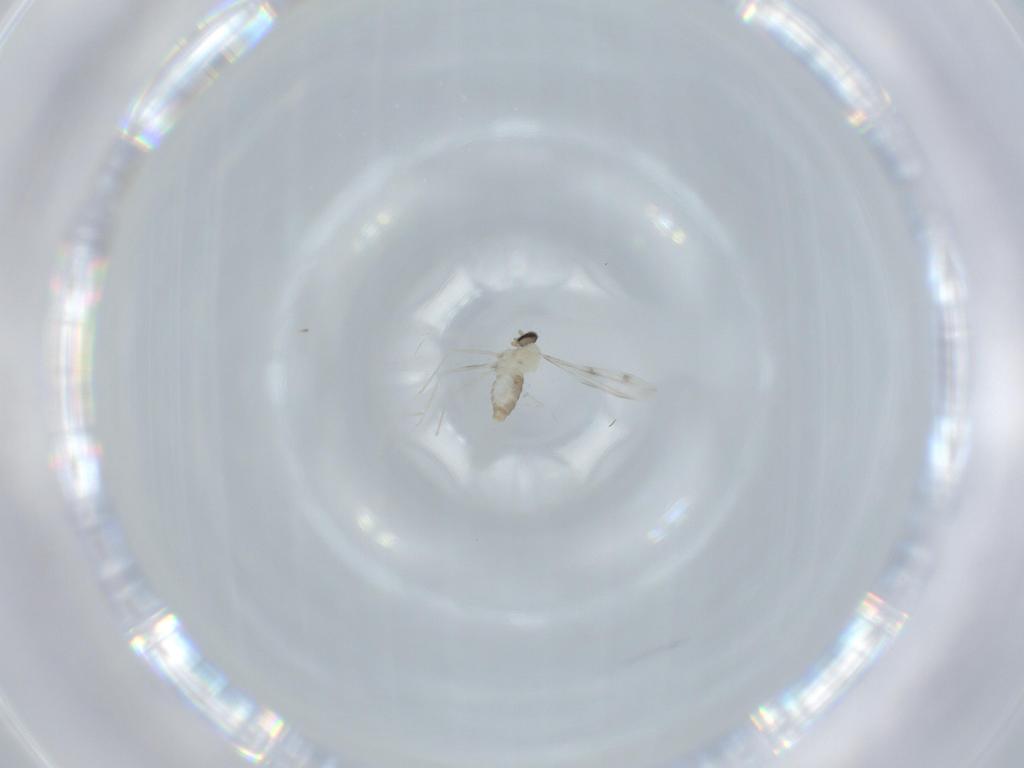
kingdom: Animalia
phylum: Arthropoda
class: Insecta
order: Diptera
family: Cecidomyiidae
